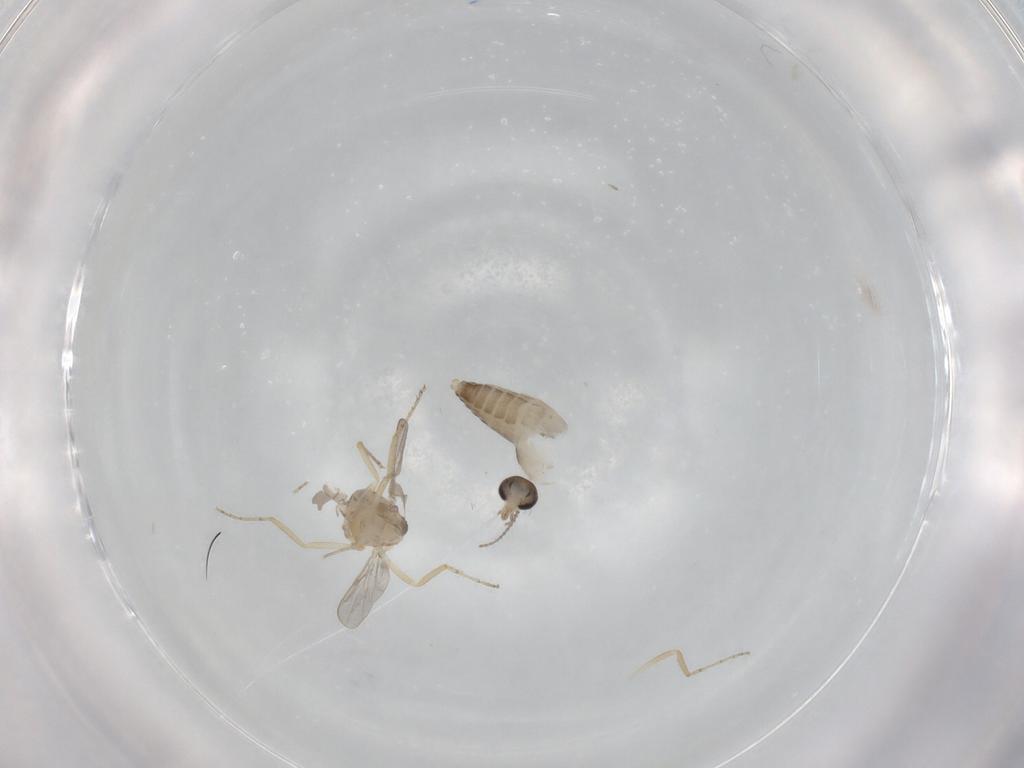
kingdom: Animalia
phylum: Arthropoda
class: Insecta
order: Diptera
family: Ceratopogonidae
